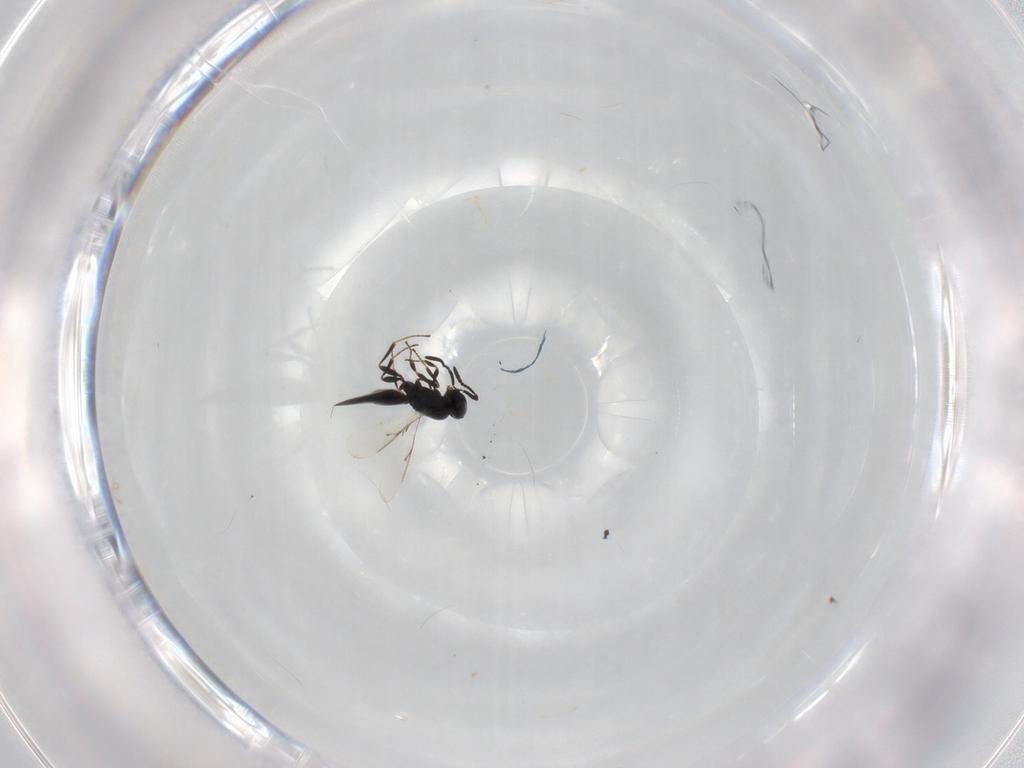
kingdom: Animalia
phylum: Arthropoda
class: Insecta
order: Hymenoptera
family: Scelionidae
